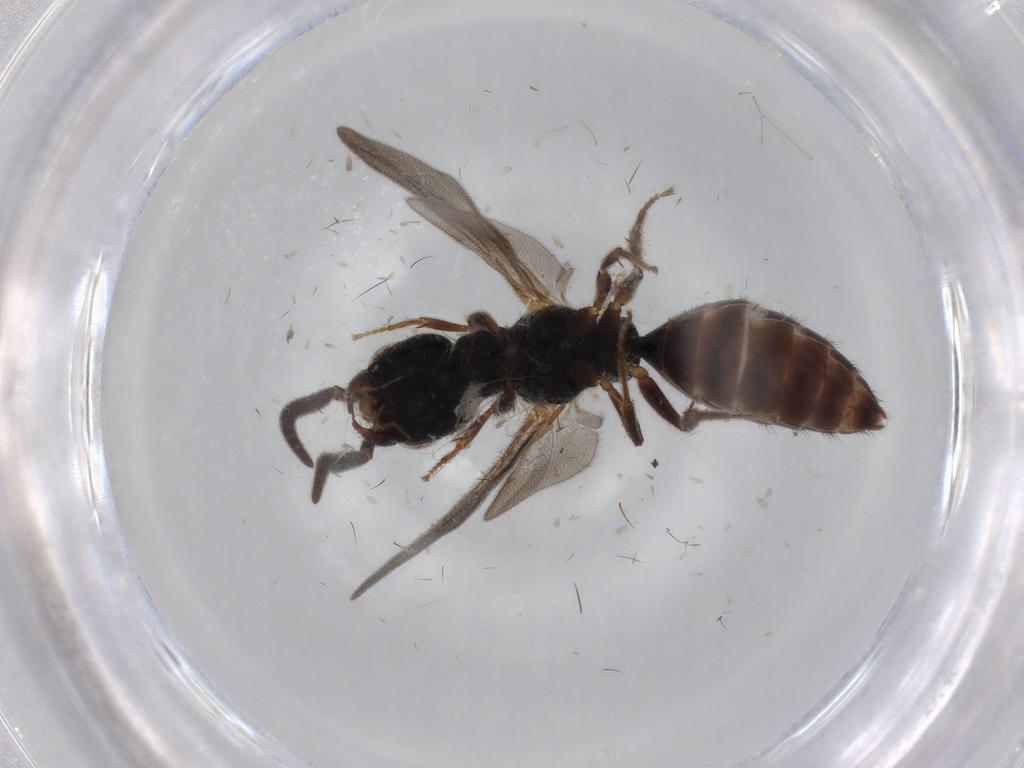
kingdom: Animalia
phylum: Arthropoda
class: Insecta
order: Hymenoptera
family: Bethylidae
